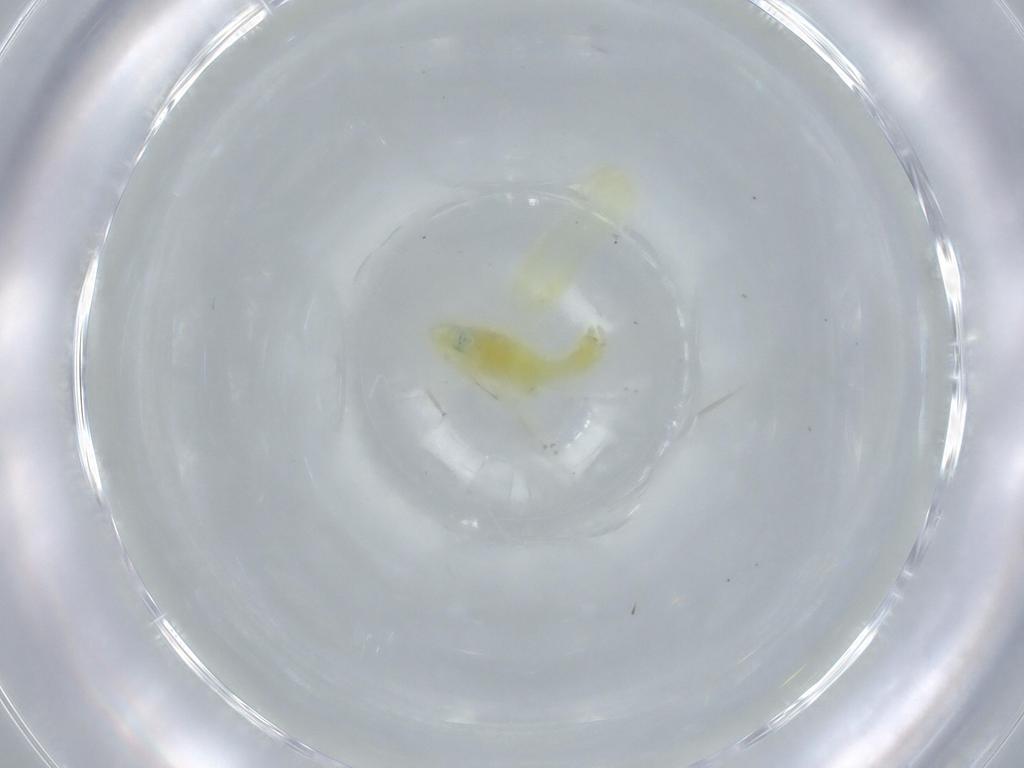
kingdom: Animalia
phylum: Arthropoda
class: Insecta
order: Hemiptera
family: Cicadellidae
